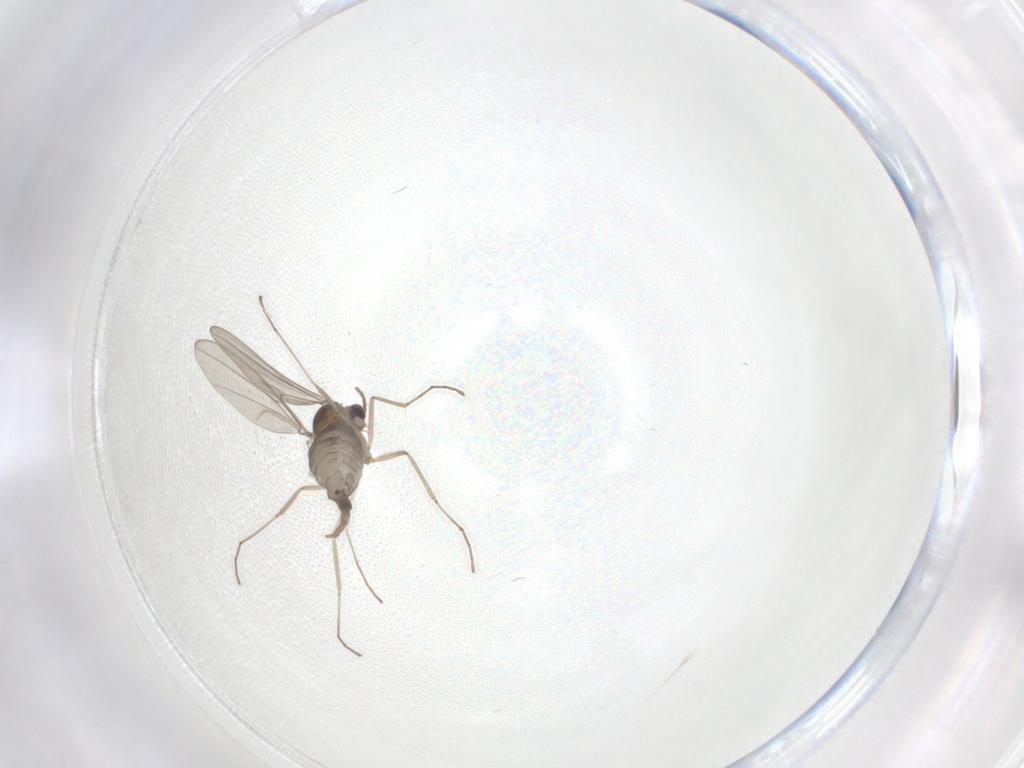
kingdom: Animalia
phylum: Arthropoda
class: Insecta
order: Diptera
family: Cecidomyiidae
